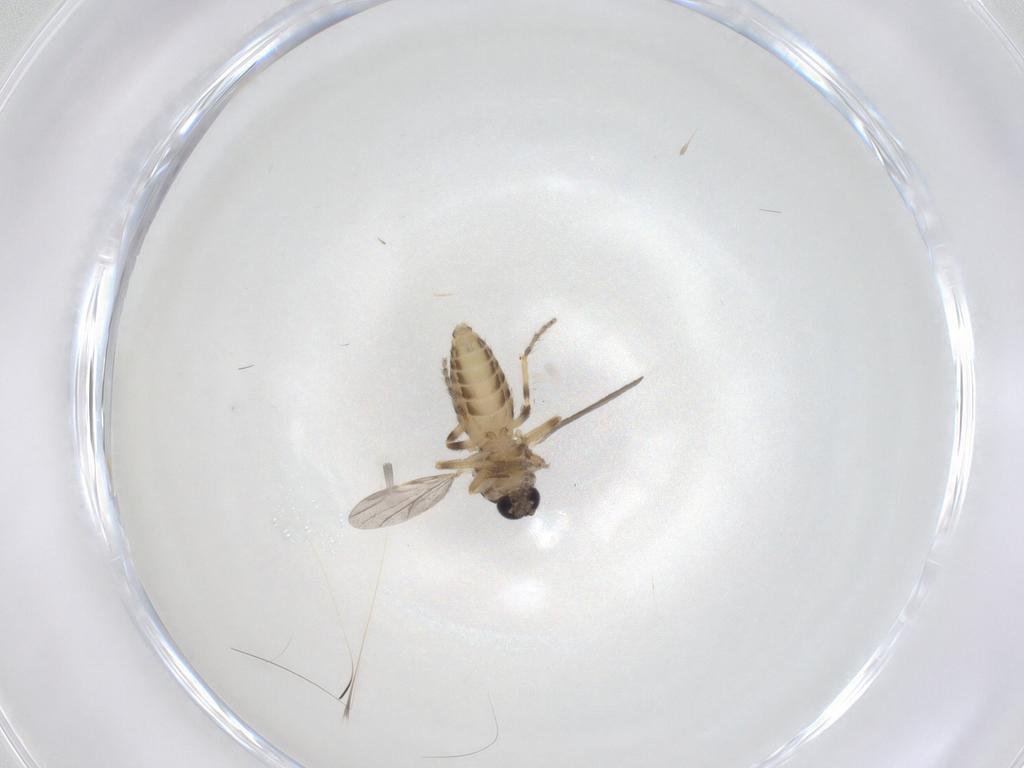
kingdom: Animalia
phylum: Arthropoda
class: Insecta
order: Diptera
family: Ceratopogonidae
